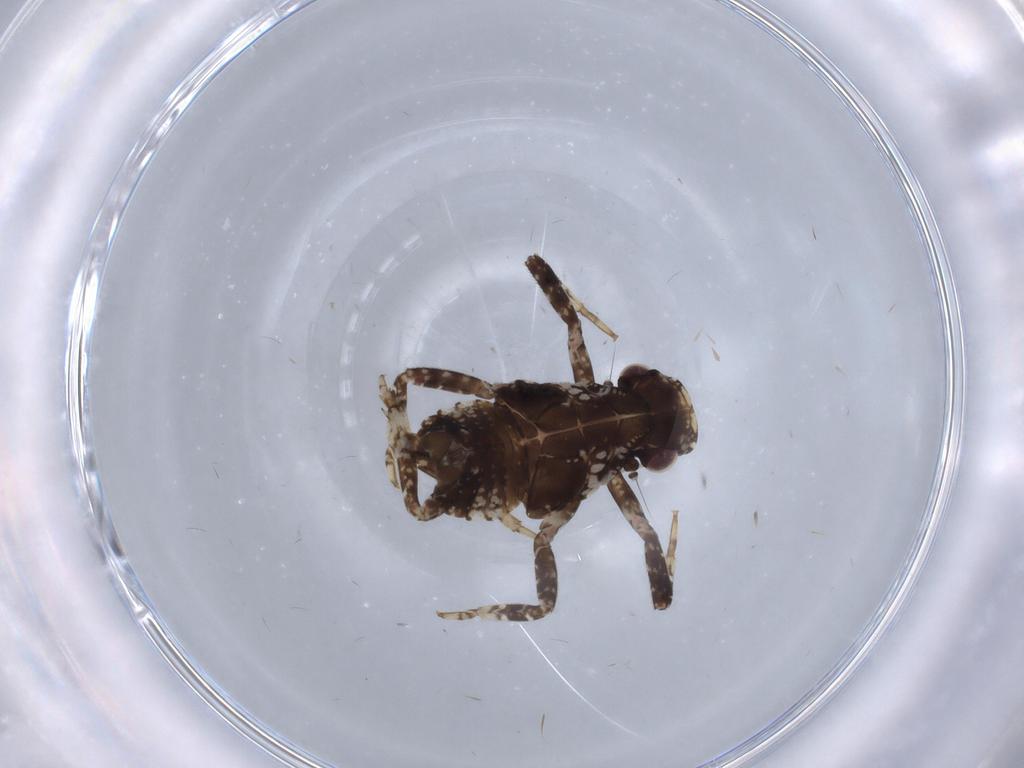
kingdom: Animalia
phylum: Arthropoda
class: Insecta
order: Hemiptera
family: Fulgoridae
